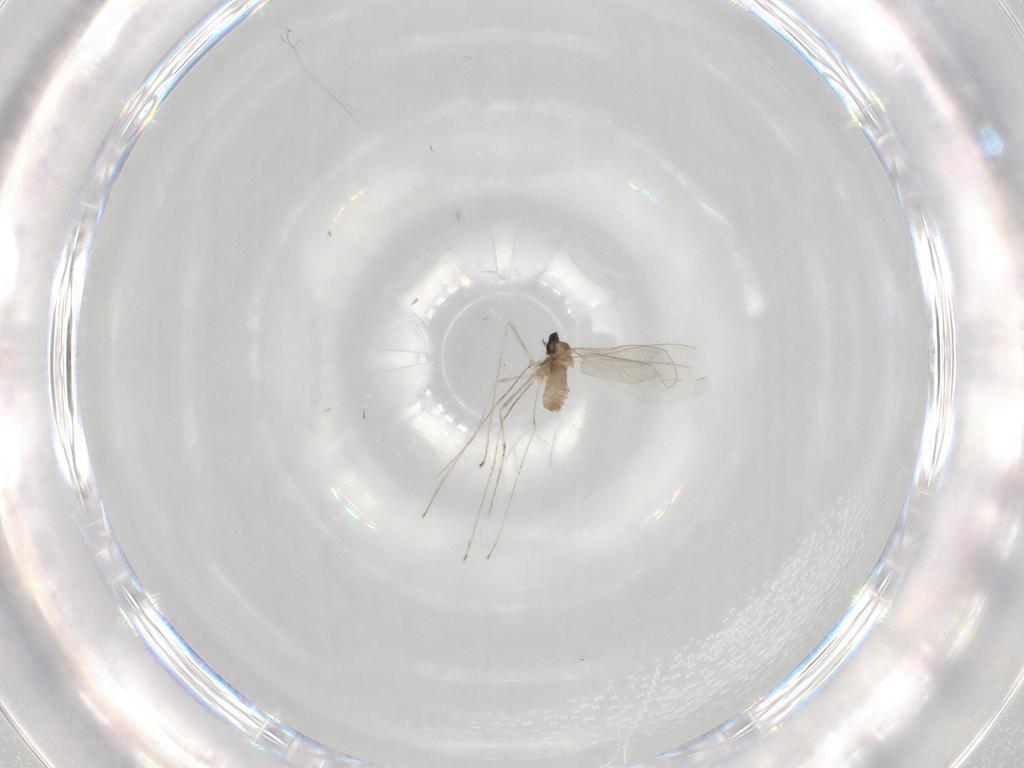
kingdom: Animalia
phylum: Arthropoda
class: Insecta
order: Diptera
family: Cecidomyiidae
